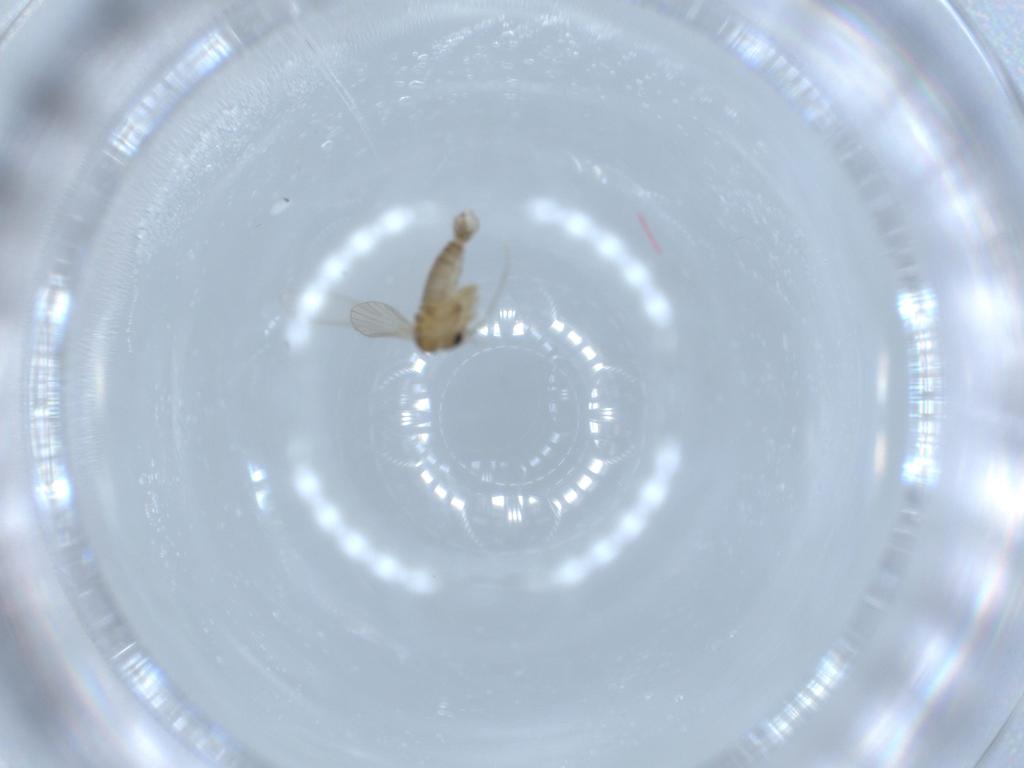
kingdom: Animalia
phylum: Arthropoda
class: Insecta
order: Diptera
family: Psychodidae
